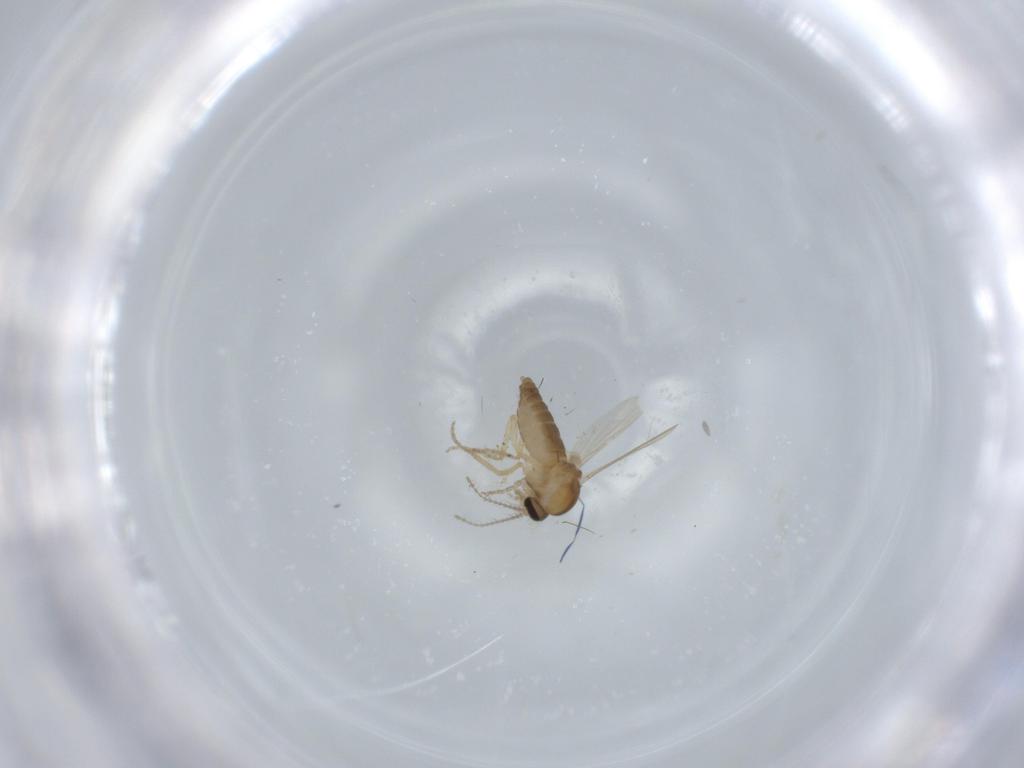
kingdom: Animalia
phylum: Arthropoda
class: Insecta
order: Diptera
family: Ceratopogonidae
